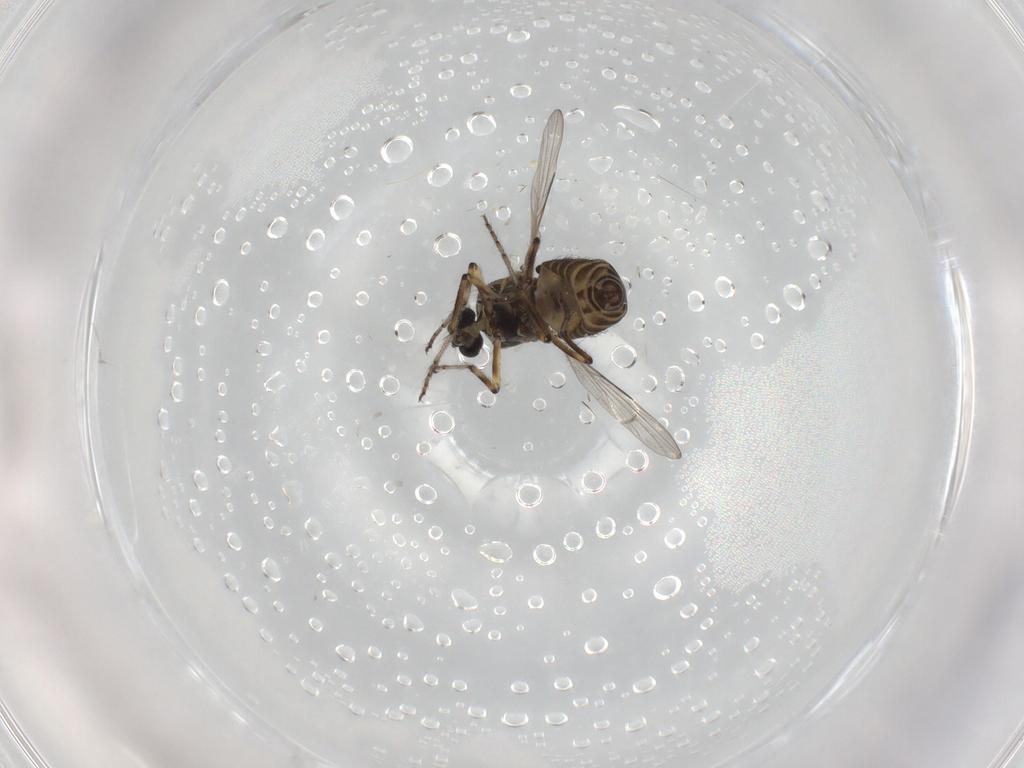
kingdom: Animalia
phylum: Arthropoda
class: Insecta
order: Diptera
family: Ceratopogonidae
